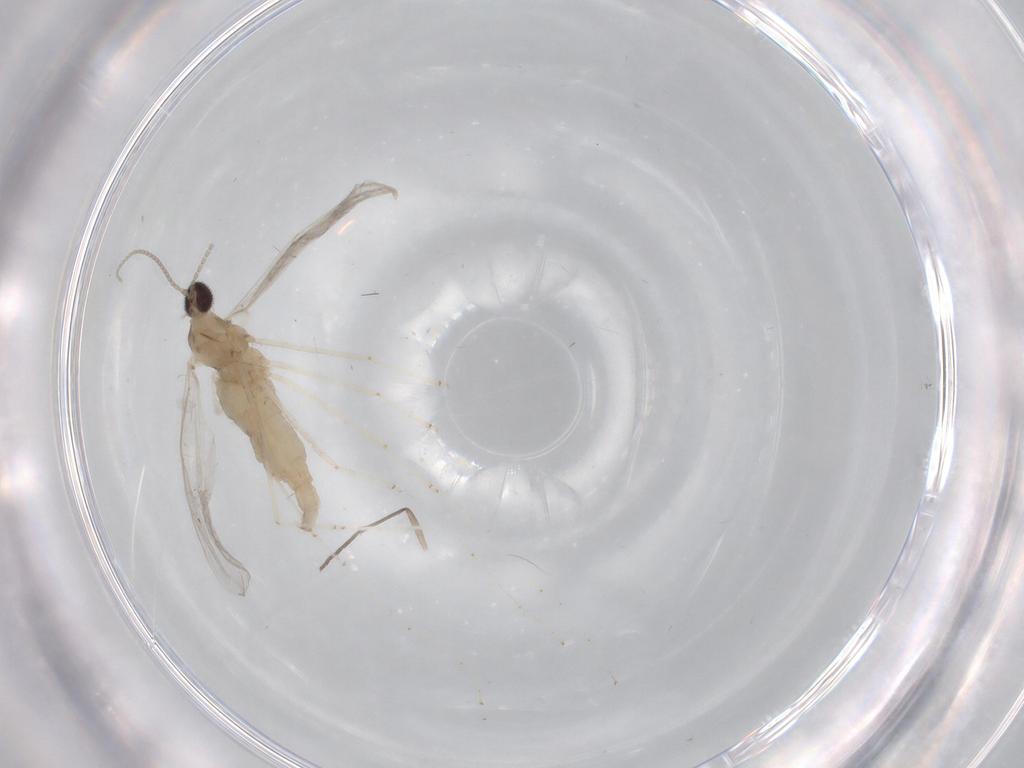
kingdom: Animalia
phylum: Arthropoda
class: Insecta
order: Diptera
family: Cecidomyiidae
